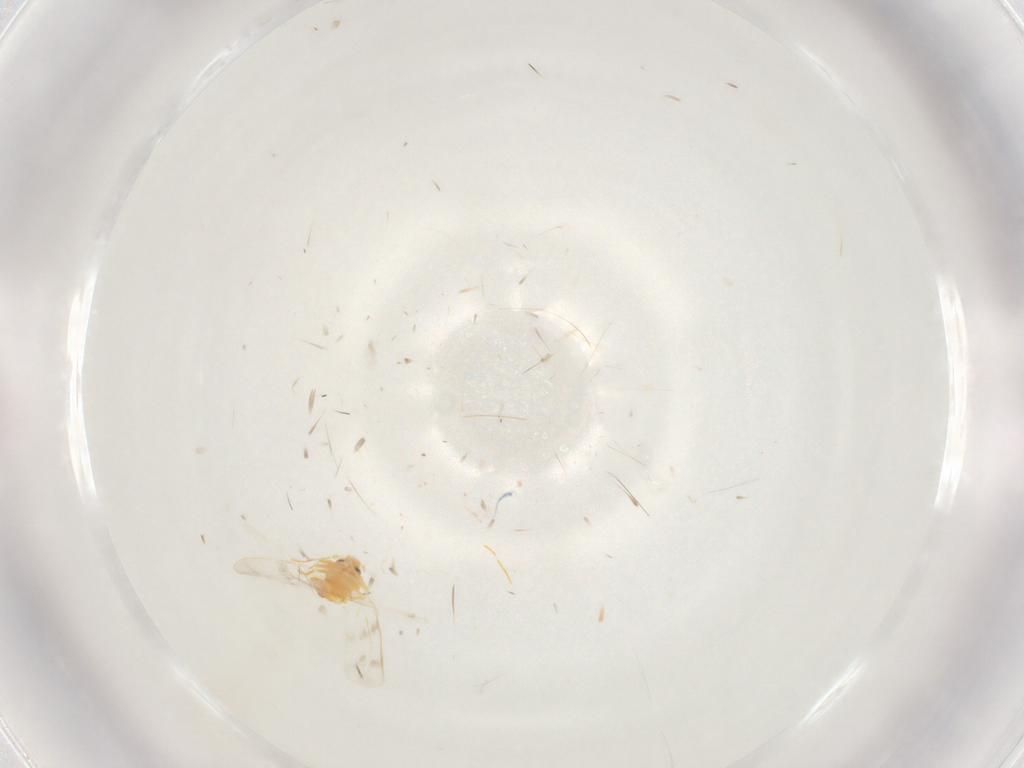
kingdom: Animalia
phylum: Arthropoda
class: Insecta
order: Hemiptera
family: Aleyrodidae
